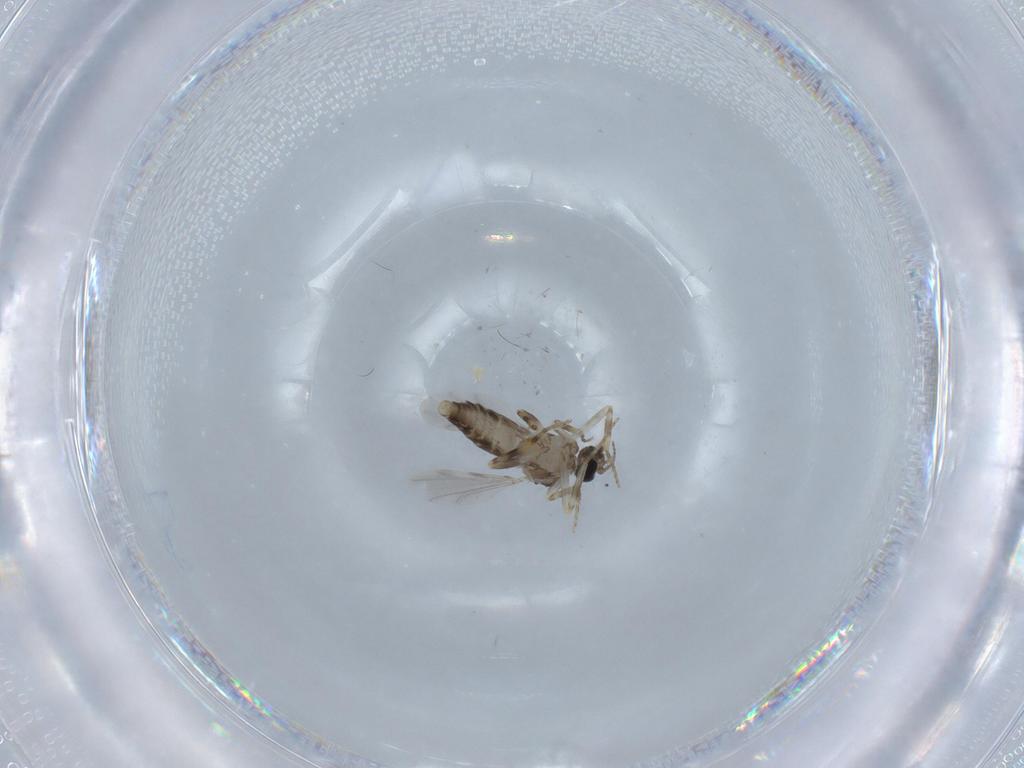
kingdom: Animalia
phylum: Arthropoda
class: Insecta
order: Diptera
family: Ceratopogonidae
